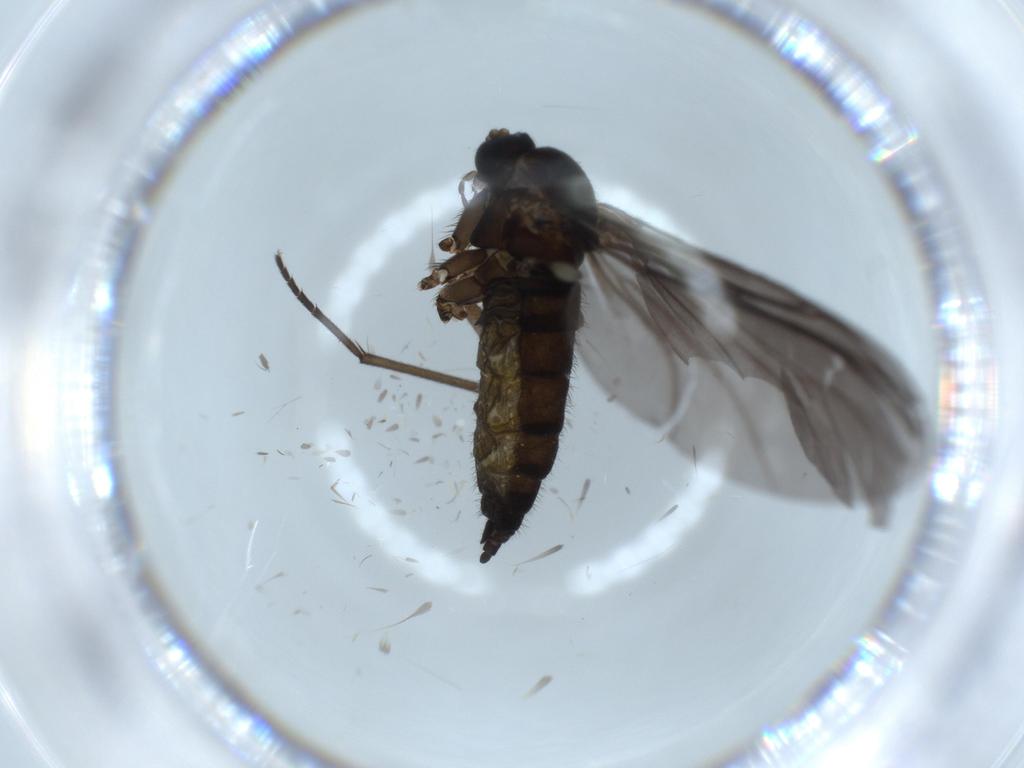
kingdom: Animalia
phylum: Arthropoda
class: Insecta
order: Diptera
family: Sciaridae
